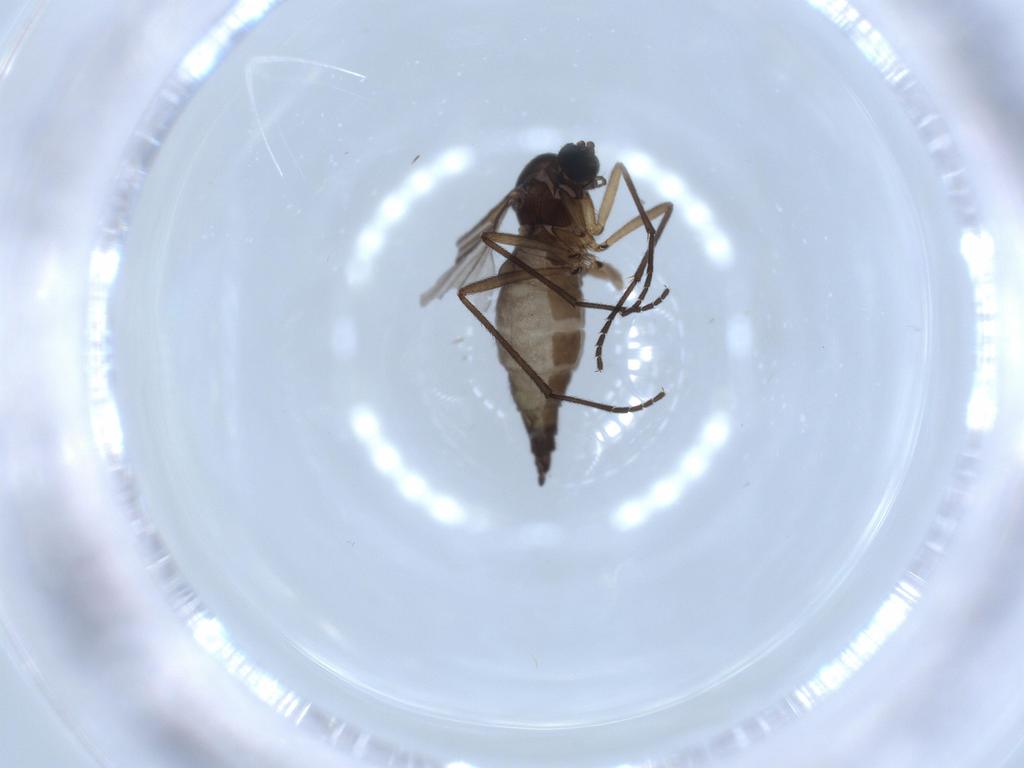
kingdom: Animalia
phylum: Arthropoda
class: Insecta
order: Diptera
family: Sciaridae
